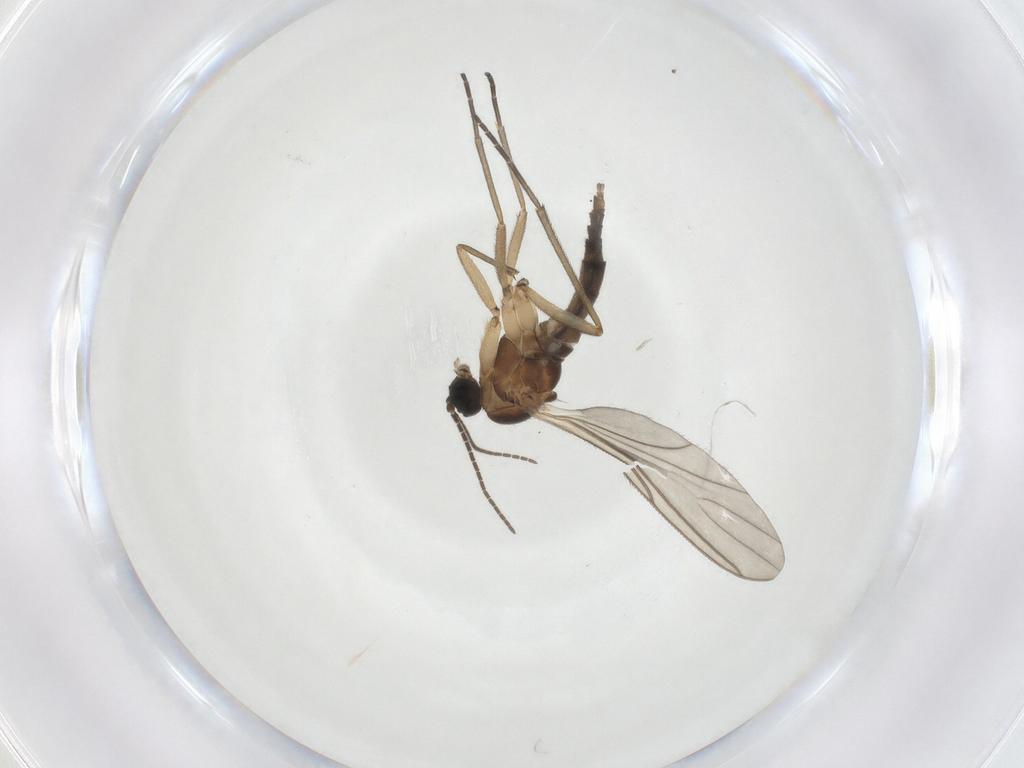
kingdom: Animalia
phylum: Arthropoda
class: Insecta
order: Diptera
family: Sciaridae
